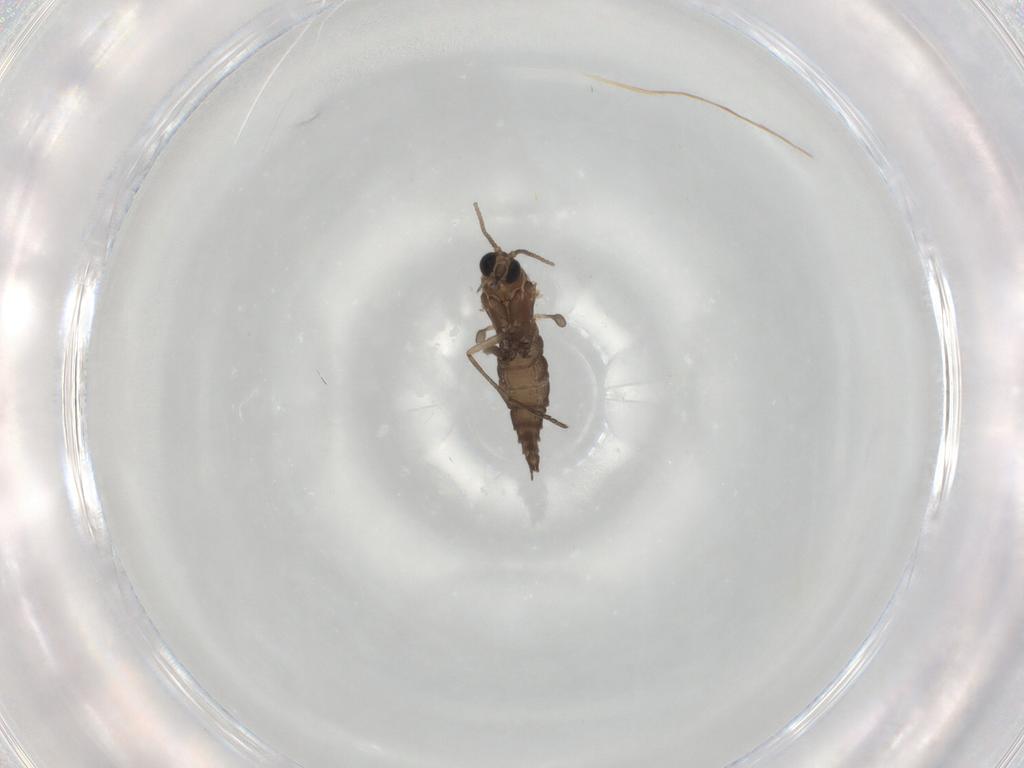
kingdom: Animalia
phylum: Arthropoda
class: Insecta
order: Diptera
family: Sciaridae
